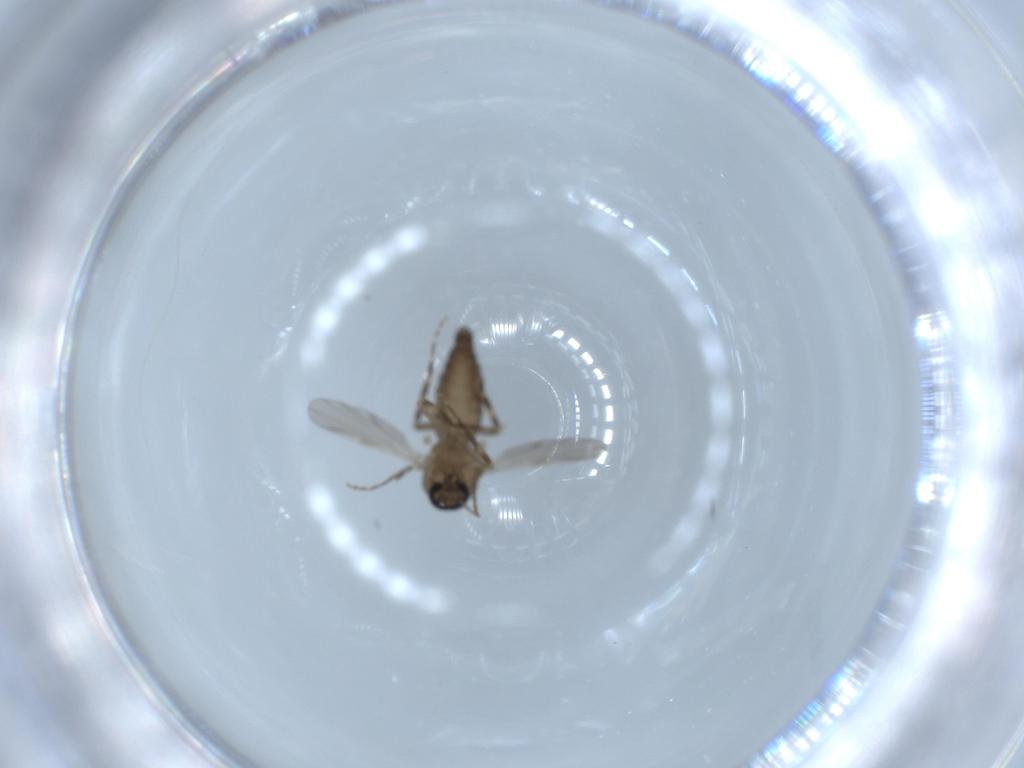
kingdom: Animalia
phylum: Arthropoda
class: Insecta
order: Diptera
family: Ceratopogonidae
